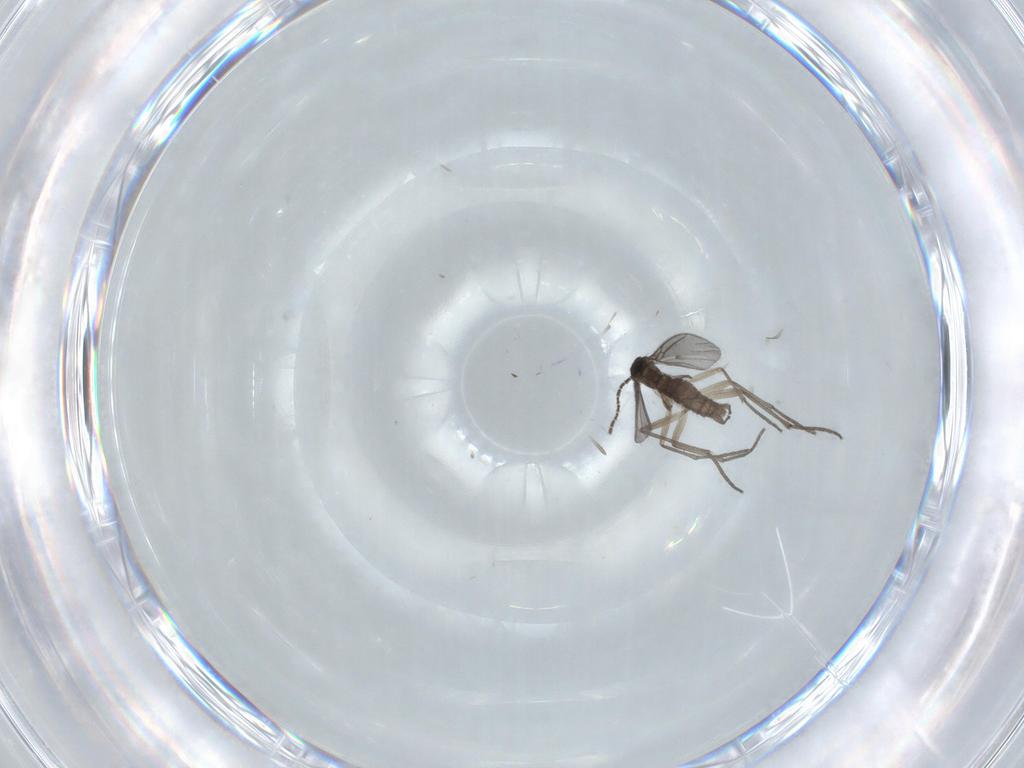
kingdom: Animalia
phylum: Arthropoda
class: Insecta
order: Diptera
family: Sciaridae
